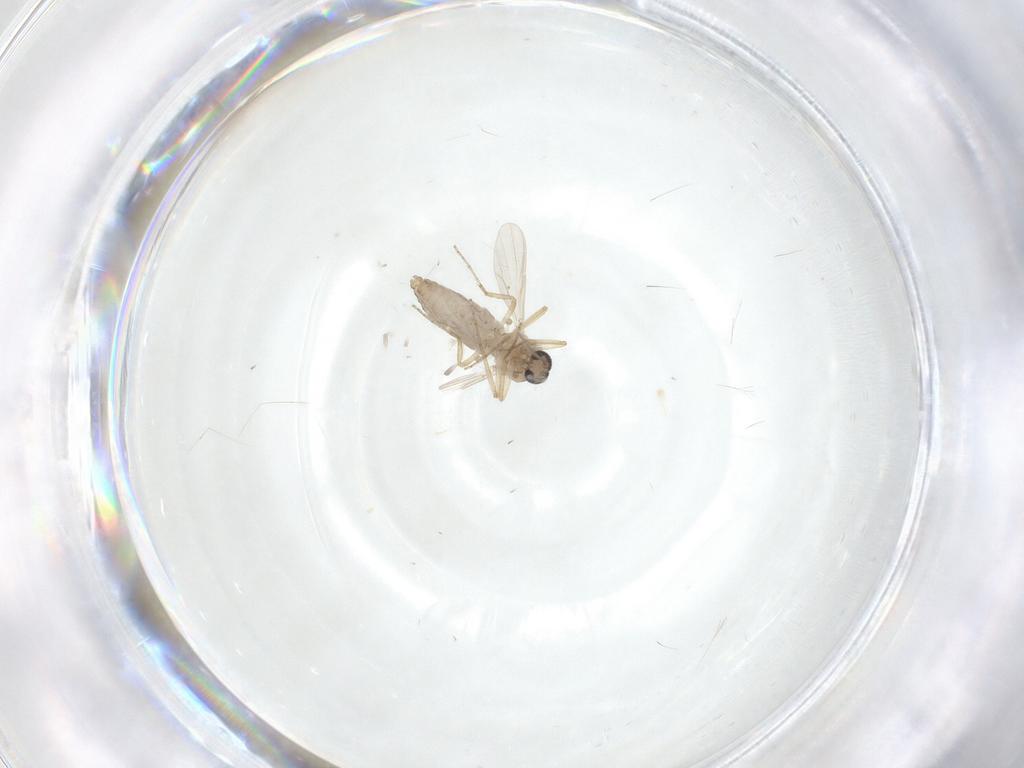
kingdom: Animalia
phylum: Arthropoda
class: Insecta
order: Diptera
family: Ceratopogonidae
